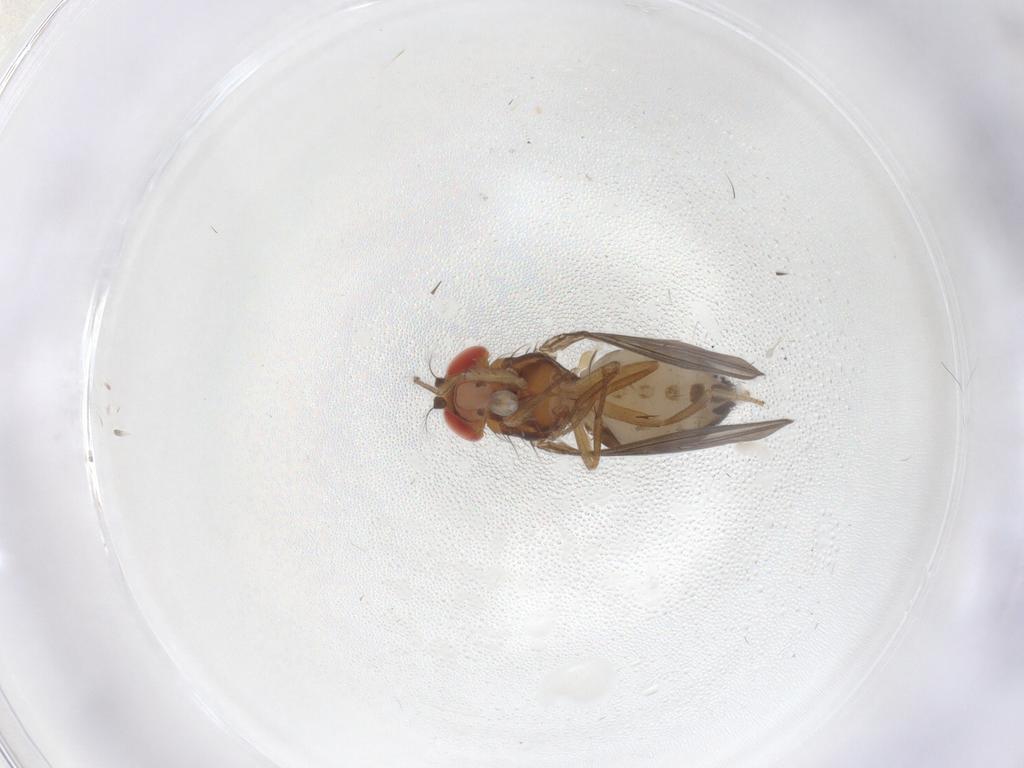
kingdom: Animalia
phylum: Arthropoda
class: Insecta
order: Diptera
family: Drosophilidae
